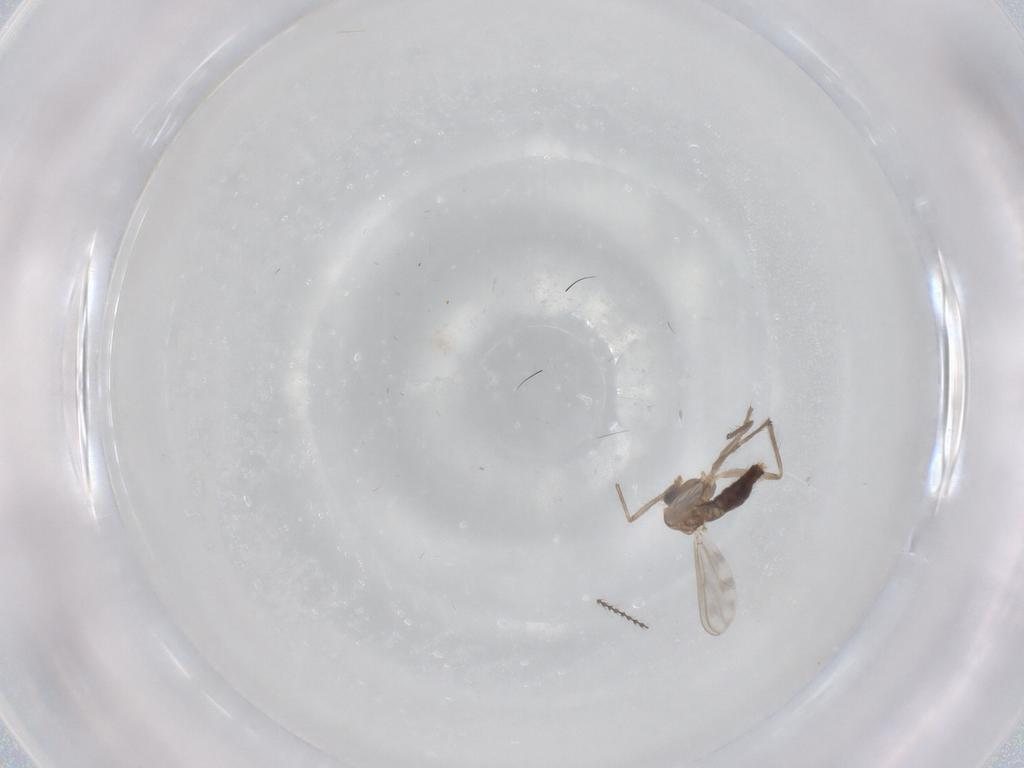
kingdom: Animalia
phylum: Arthropoda
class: Insecta
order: Diptera
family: Chironomidae
